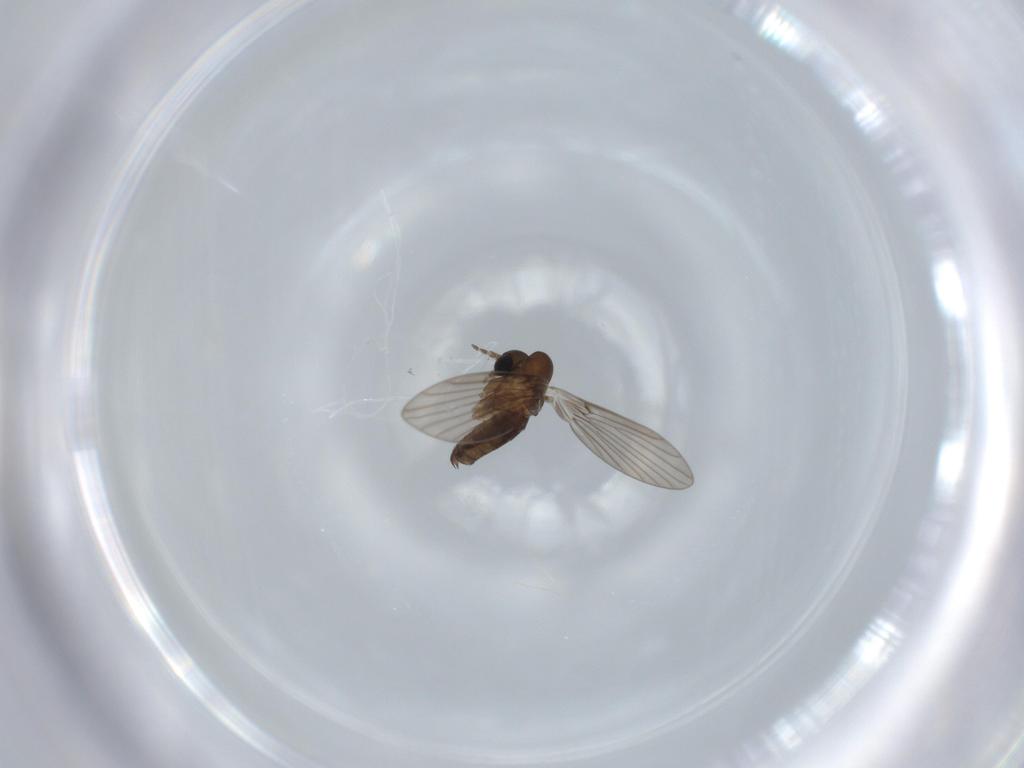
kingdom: Animalia
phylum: Arthropoda
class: Insecta
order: Diptera
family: Psychodidae
